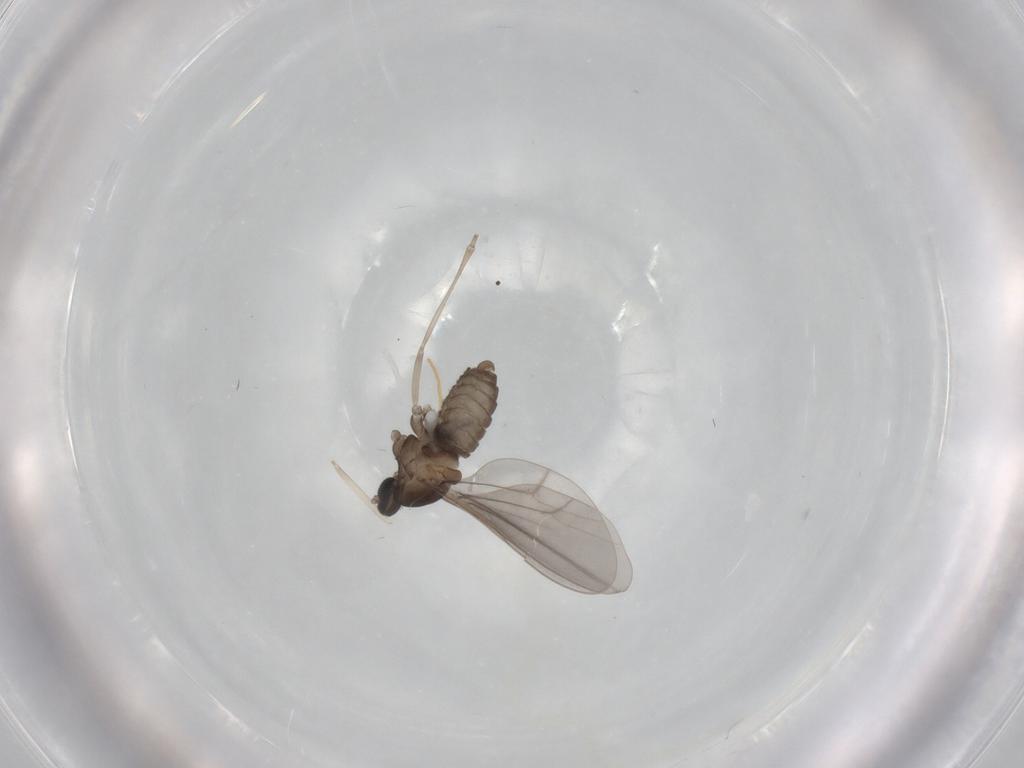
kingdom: Animalia
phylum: Arthropoda
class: Insecta
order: Diptera
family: Cecidomyiidae
